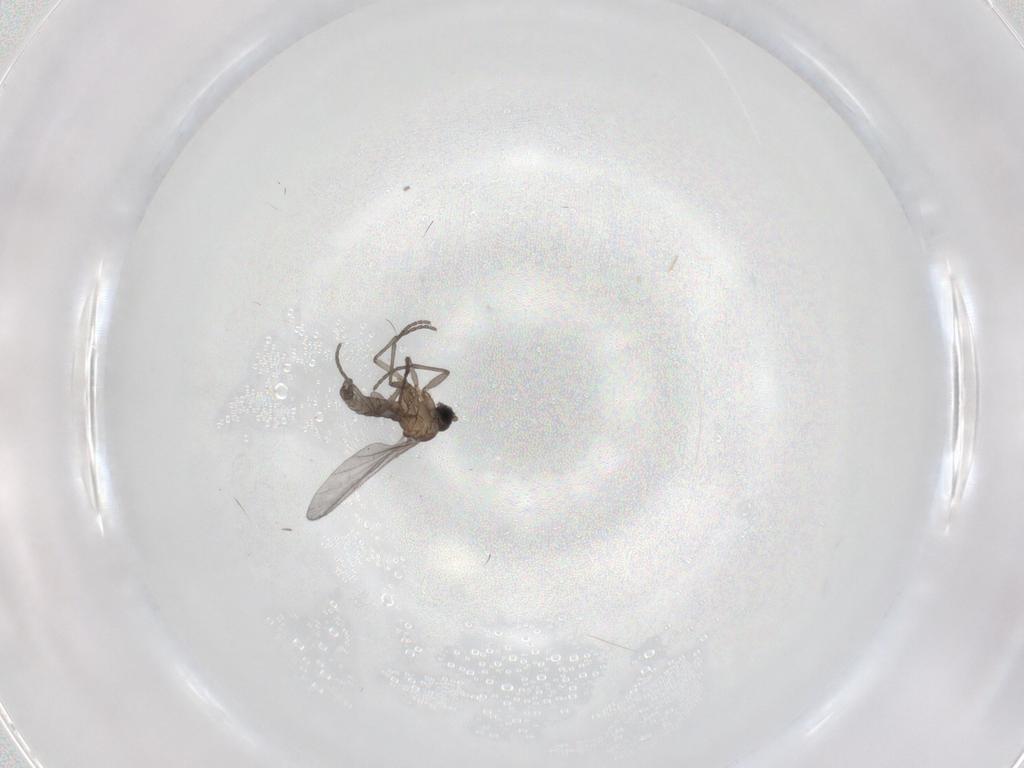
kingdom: Animalia
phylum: Arthropoda
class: Insecta
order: Diptera
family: Sciaridae
